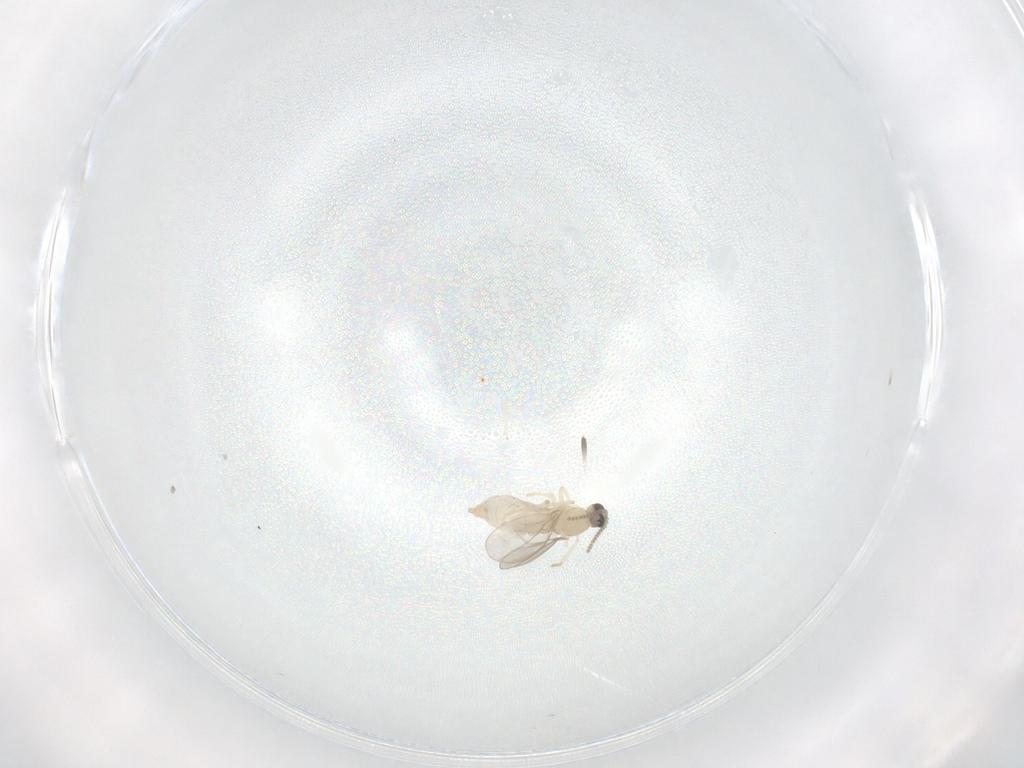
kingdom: Animalia
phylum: Arthropoda
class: Insecta
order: Diptera
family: Cecidomyiidae
